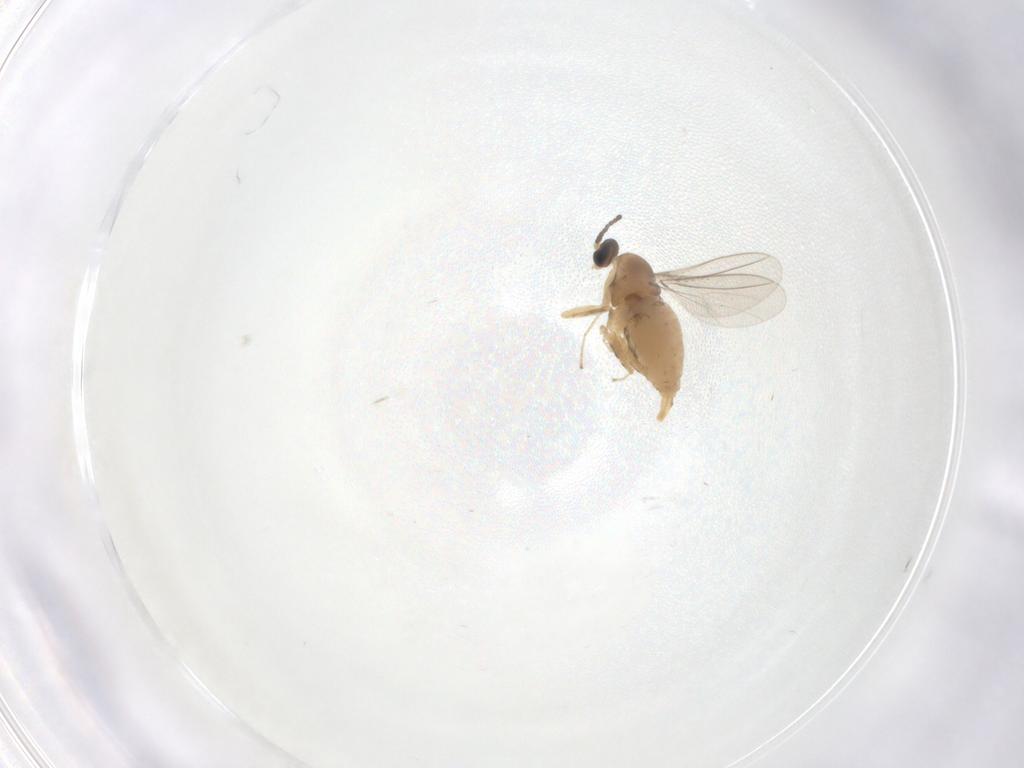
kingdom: Animalia
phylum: Arthropoda
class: Insecta
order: Diptera
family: Cecidomyiidae
